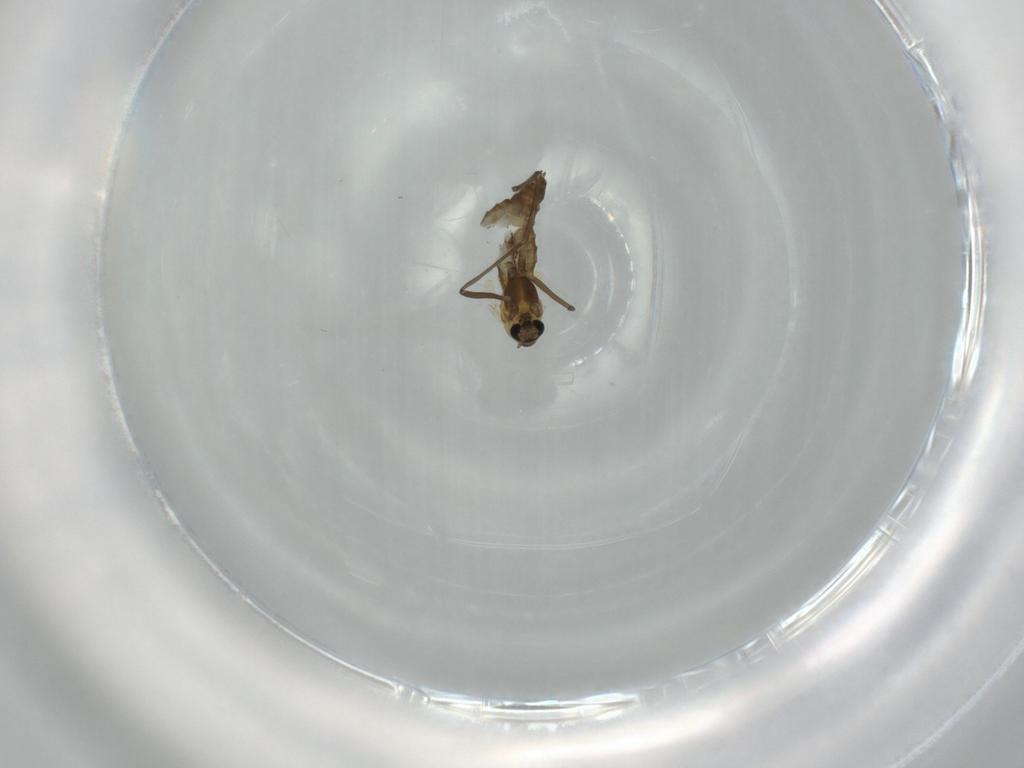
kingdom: Animalia
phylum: Arthropoda
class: Insecta
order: Diptera
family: Chironomidae
